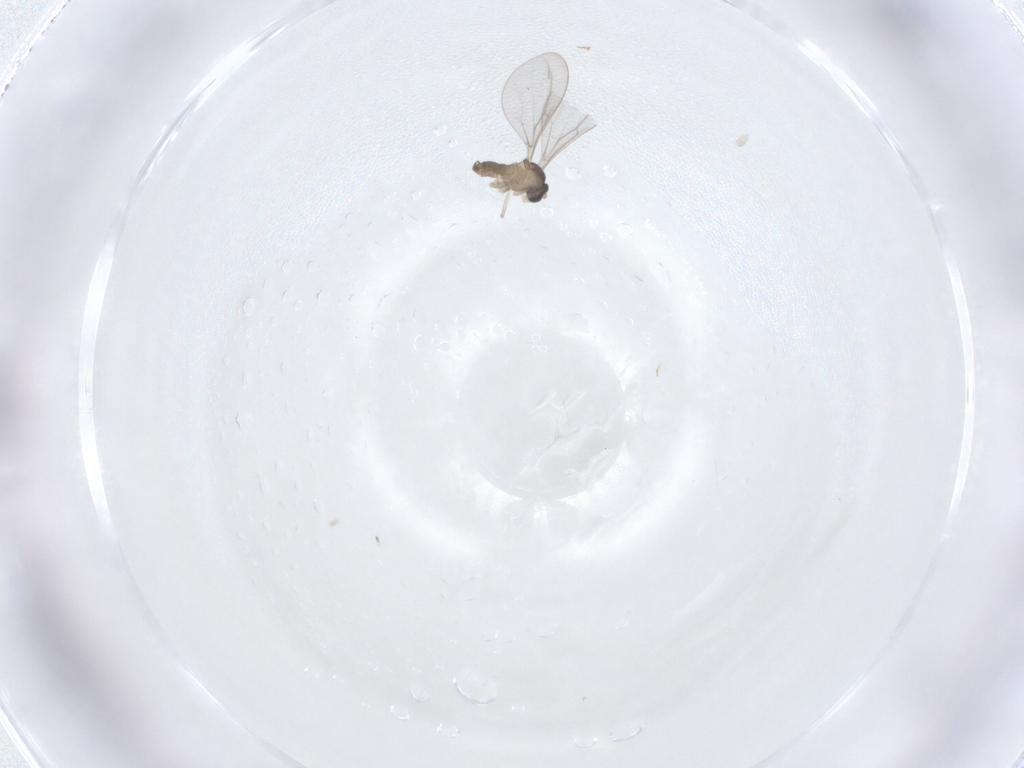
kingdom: Animalia
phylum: Arthropoda
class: Insecta
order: Diptera
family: Cecidomyiidae
